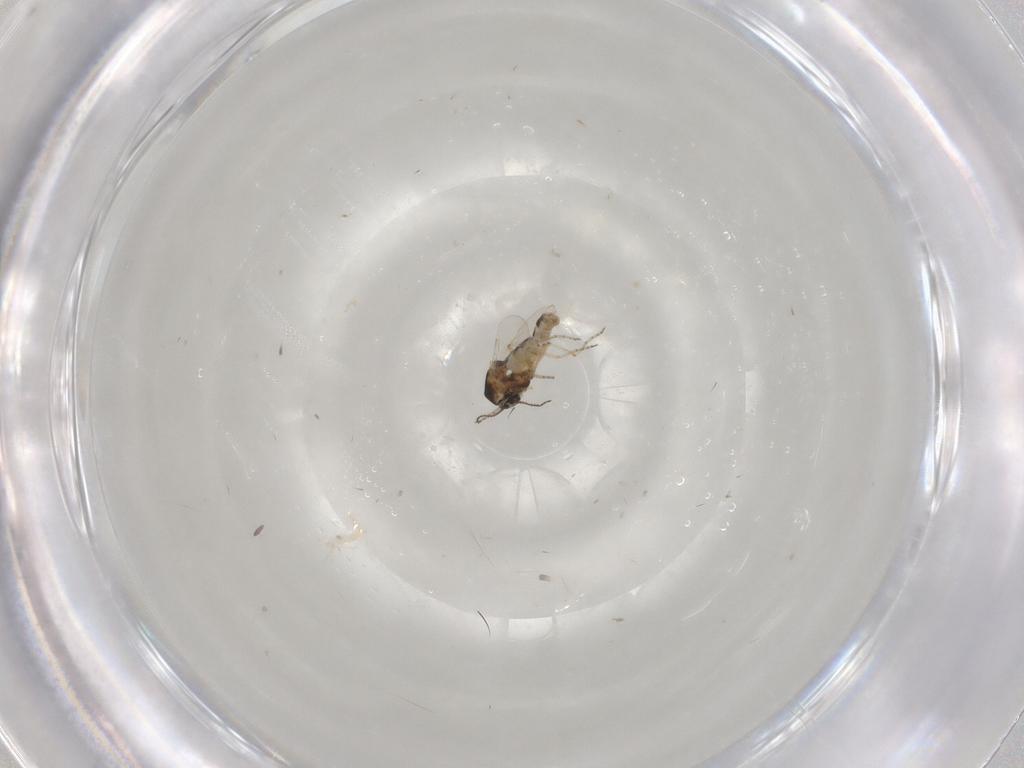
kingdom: Animalia
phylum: Arthropoda
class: Insecta
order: Diptera
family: Ceratopogonidae
